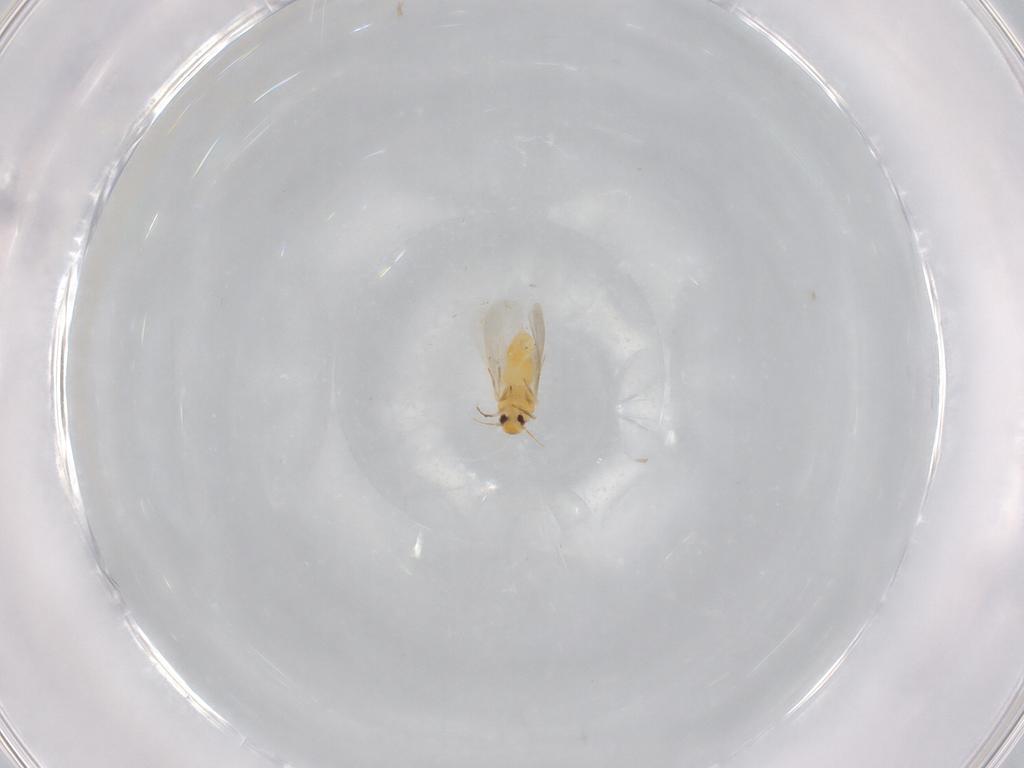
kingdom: Animalia
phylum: Arthropoda
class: Insecta
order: Hemiptera
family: Aleyrodidae
